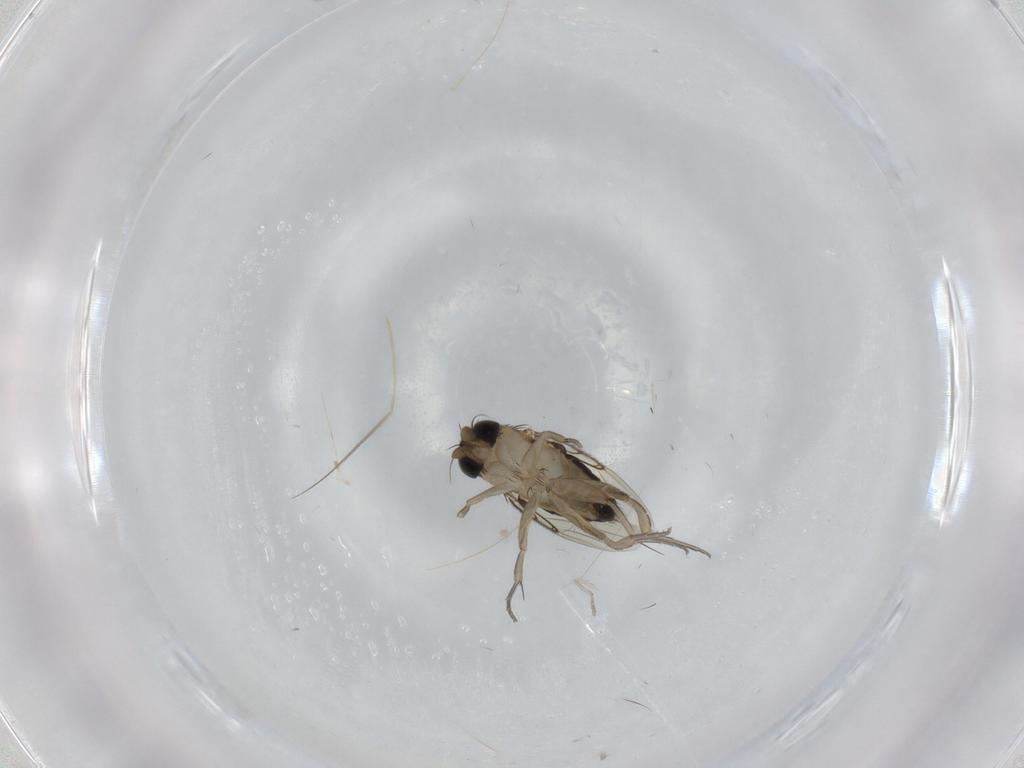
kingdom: Animalia
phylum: Arthropoda
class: Insecta
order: Diptera
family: Phoridae
